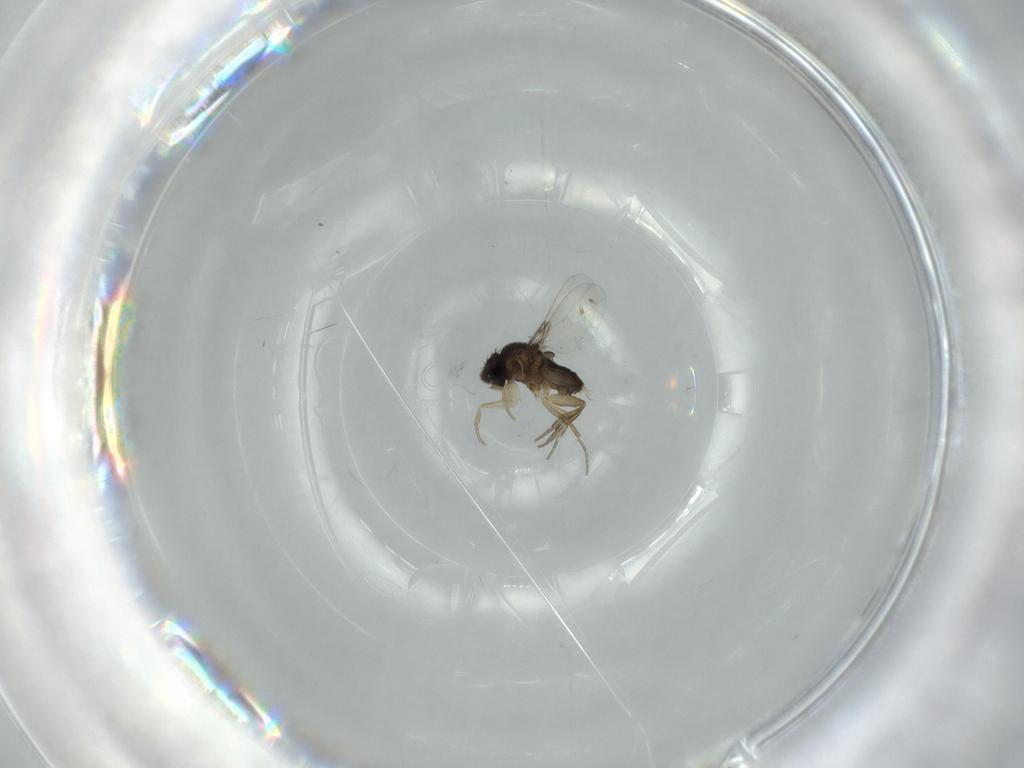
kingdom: Animalia
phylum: Arthropoda
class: Insecta
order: Diptera
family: Phoridae
